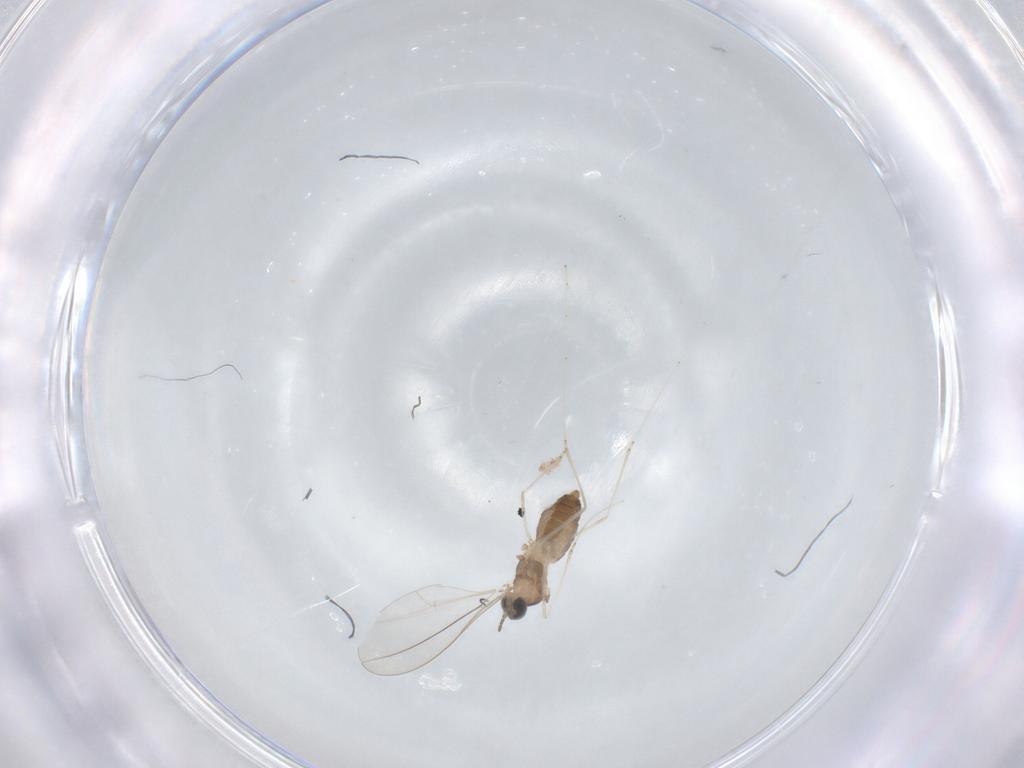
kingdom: Animalia
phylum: Arthropoda
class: Insecta
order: Diptera
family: Cecidomyiidae
